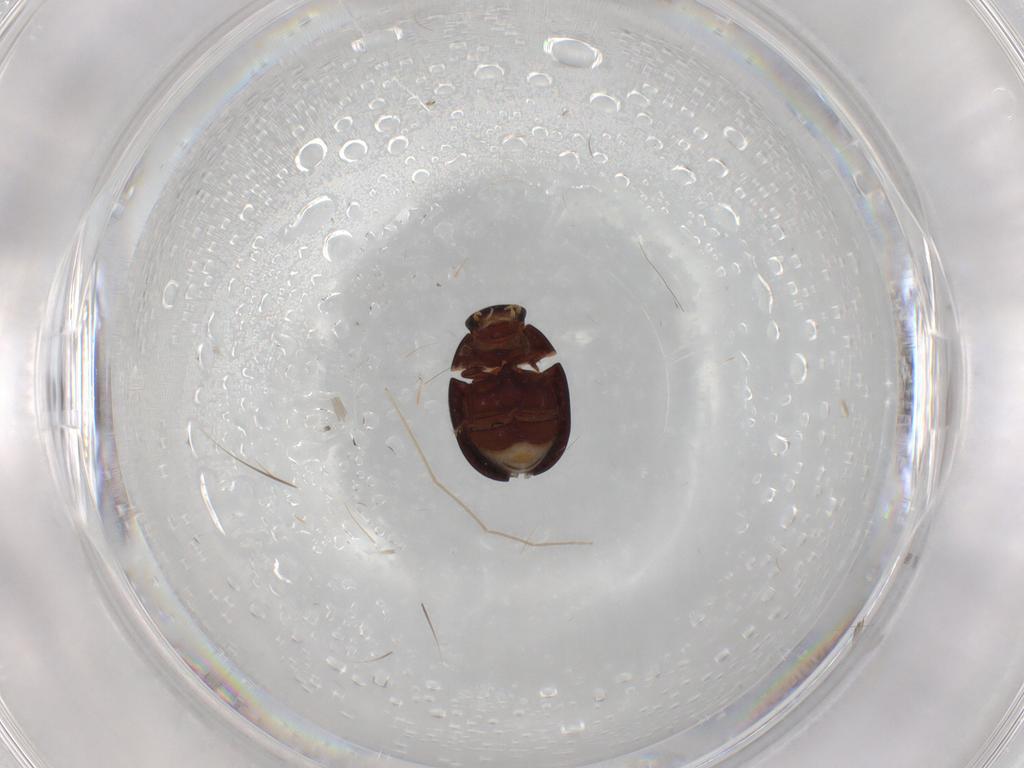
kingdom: Animalia
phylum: Arthropoda
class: Insecta
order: Coleoptera
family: Hydrophilidae
